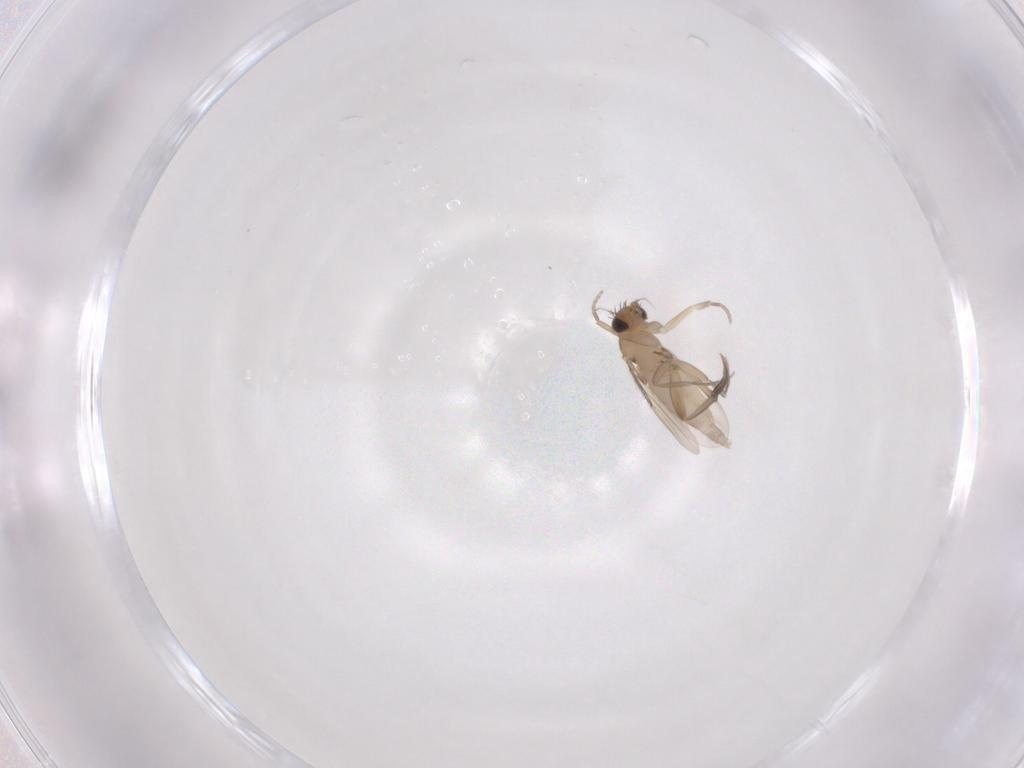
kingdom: Animalia
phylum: Arthropoda
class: Insecta
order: Diptera
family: Phoridae
